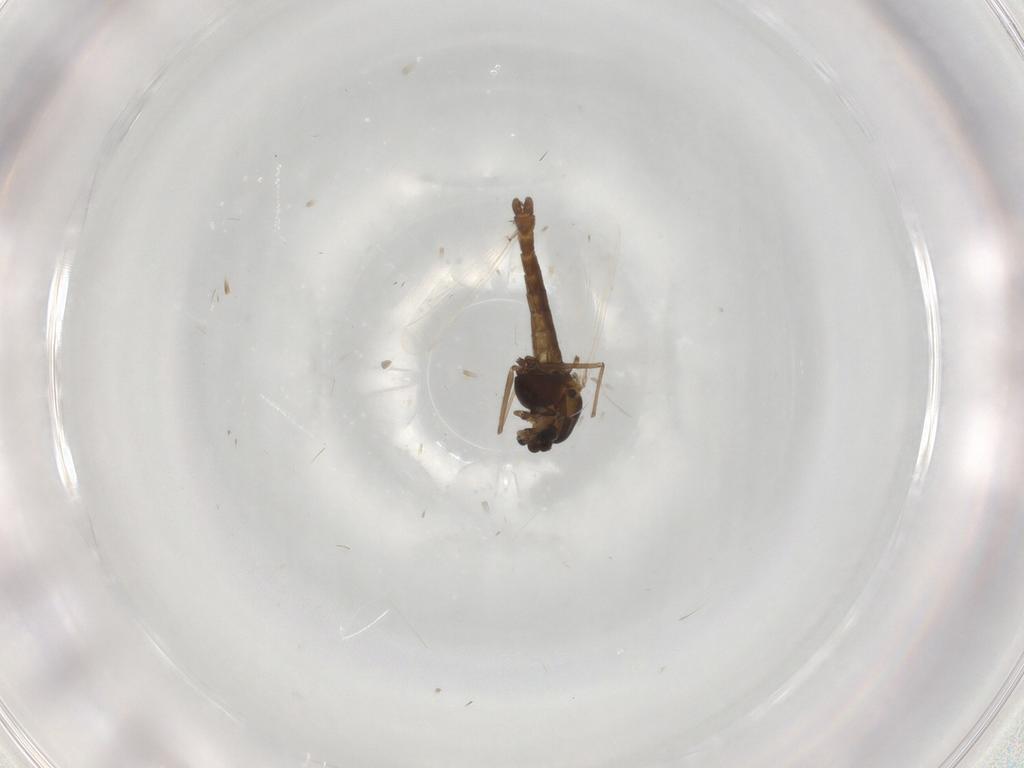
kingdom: Animalia
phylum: Arthropoda
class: Insecta
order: Diptera
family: Chironomidae
